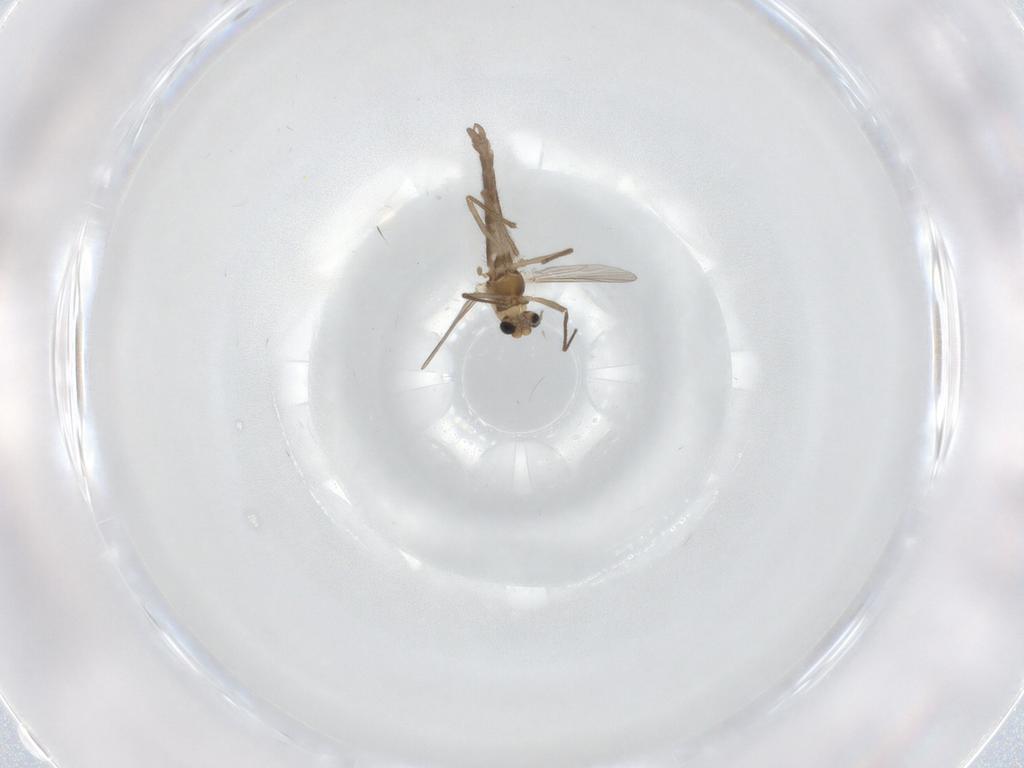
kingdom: Animalia
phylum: Arthropoda
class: Insecta
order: Diptera
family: Chironomidae
